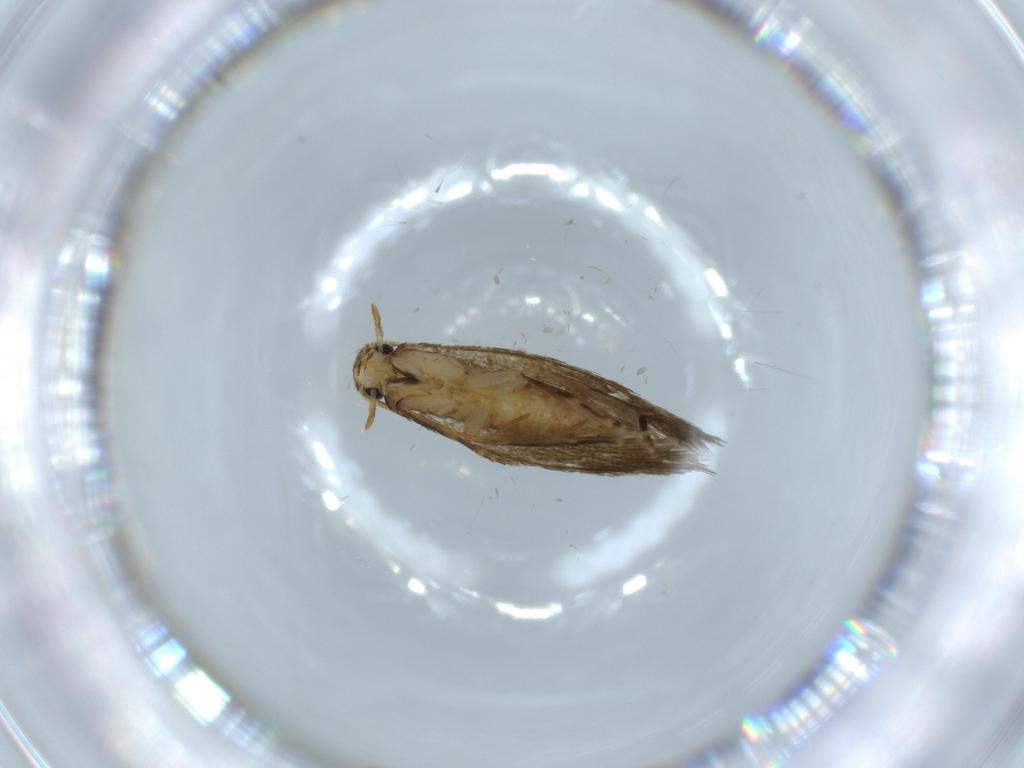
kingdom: Animalia
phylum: Arthropoda
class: Insecta
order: Lepidoptera
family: Tineidae
